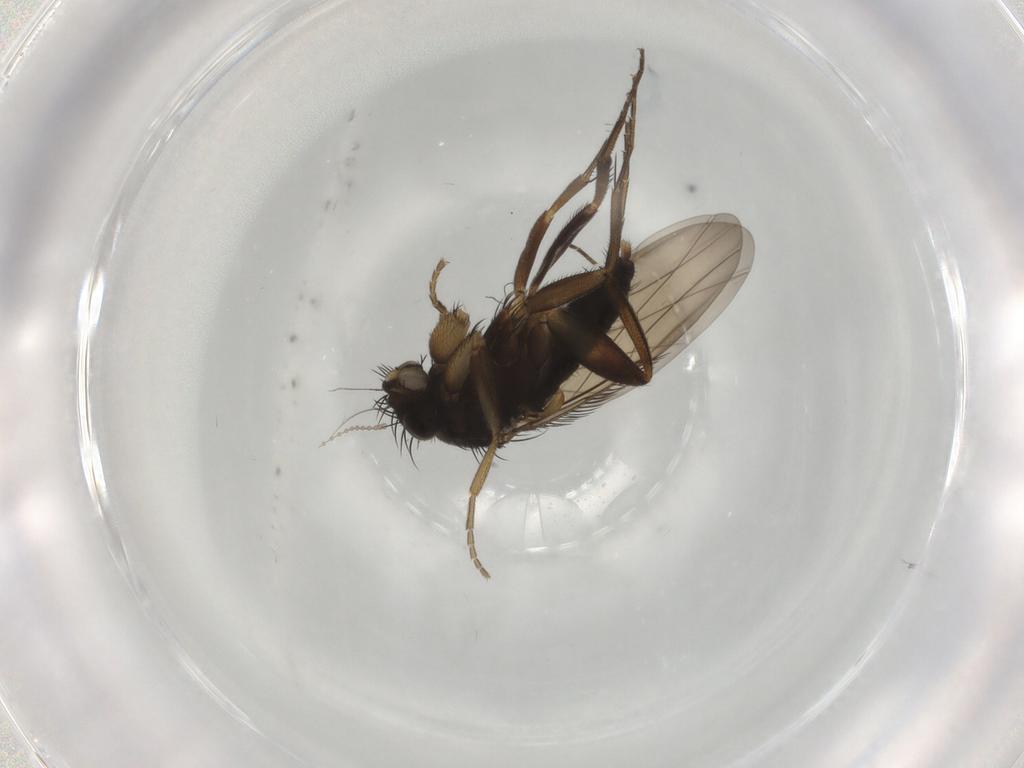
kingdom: Animalia
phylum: Arthropoda
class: Insecta
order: Diptera
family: Phoridae
